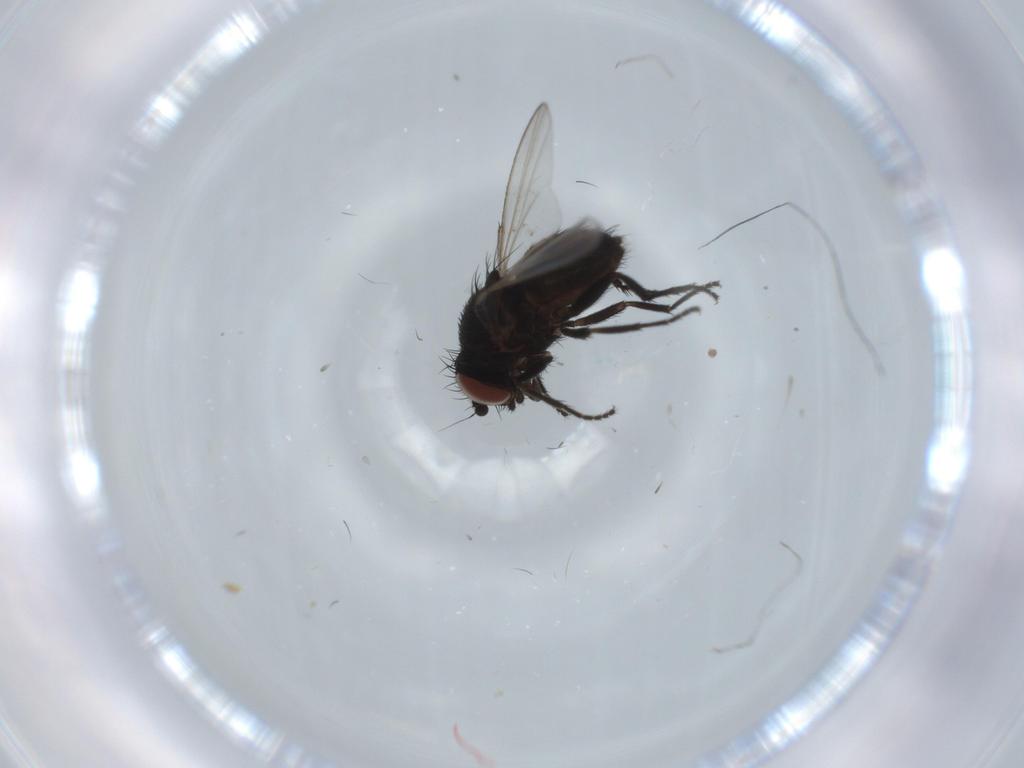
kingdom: Animalia
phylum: Arthropoda
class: Insecta
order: Diptera
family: Milichiidae
